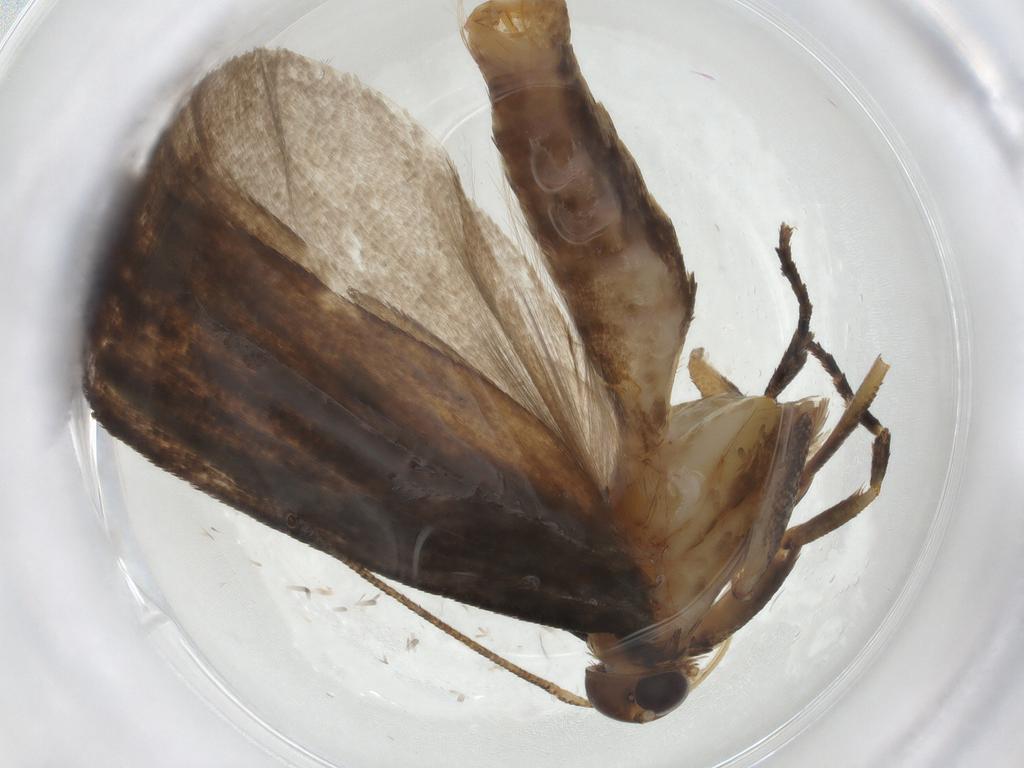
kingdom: Animalia
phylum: Arthropoda
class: Insecta
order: Lepidoptera
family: Gelechiidae
